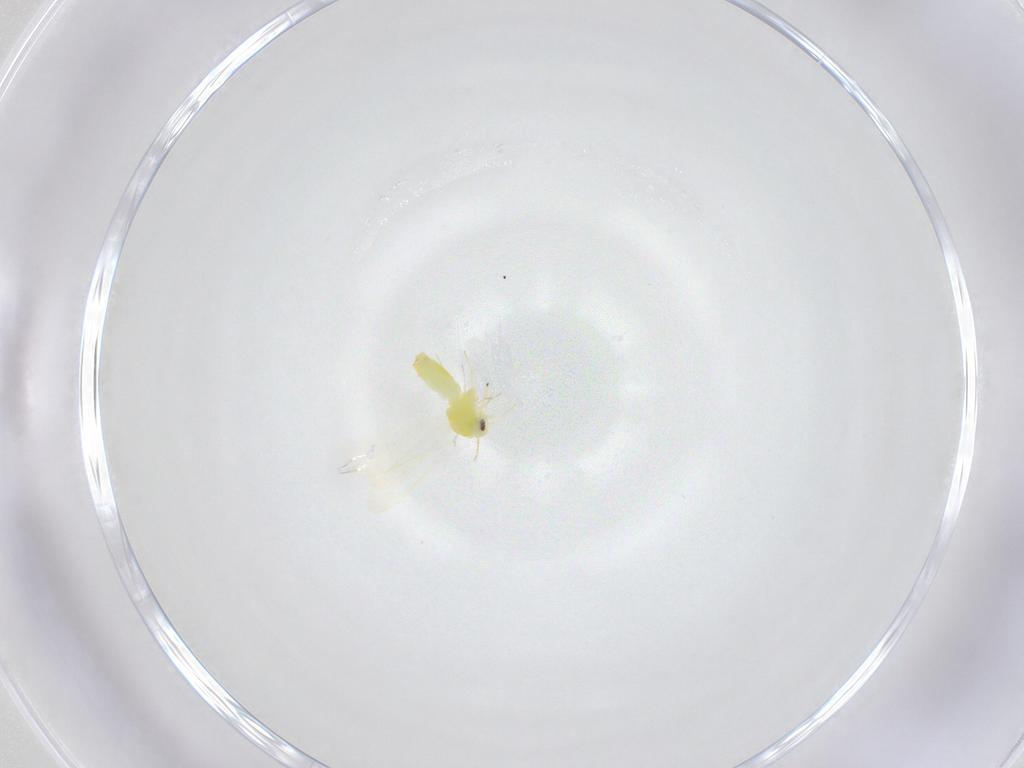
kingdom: Animalia
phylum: Arthropoda
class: Insecta
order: Hemiptera
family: Aleyrodidae
